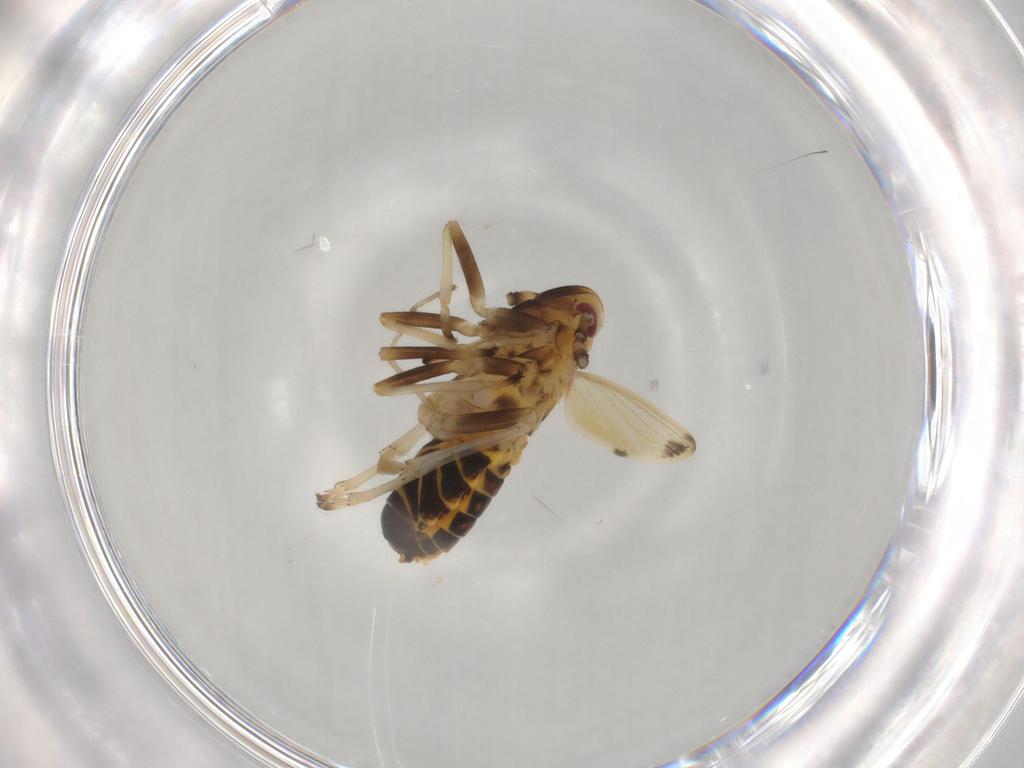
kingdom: Animalia
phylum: Arthropoda
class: Insecta
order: Hemiptera
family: Delphacidae
